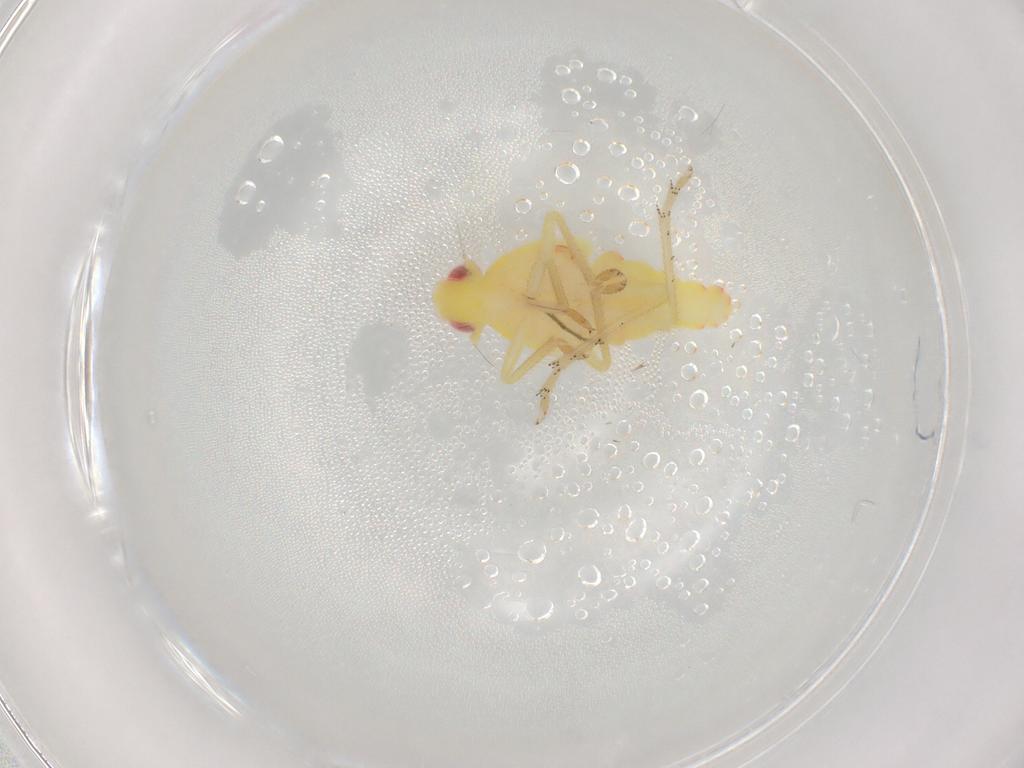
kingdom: Animalia
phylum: Arthropoda
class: Insecta
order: Hemiptera
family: Tropiduchidae
